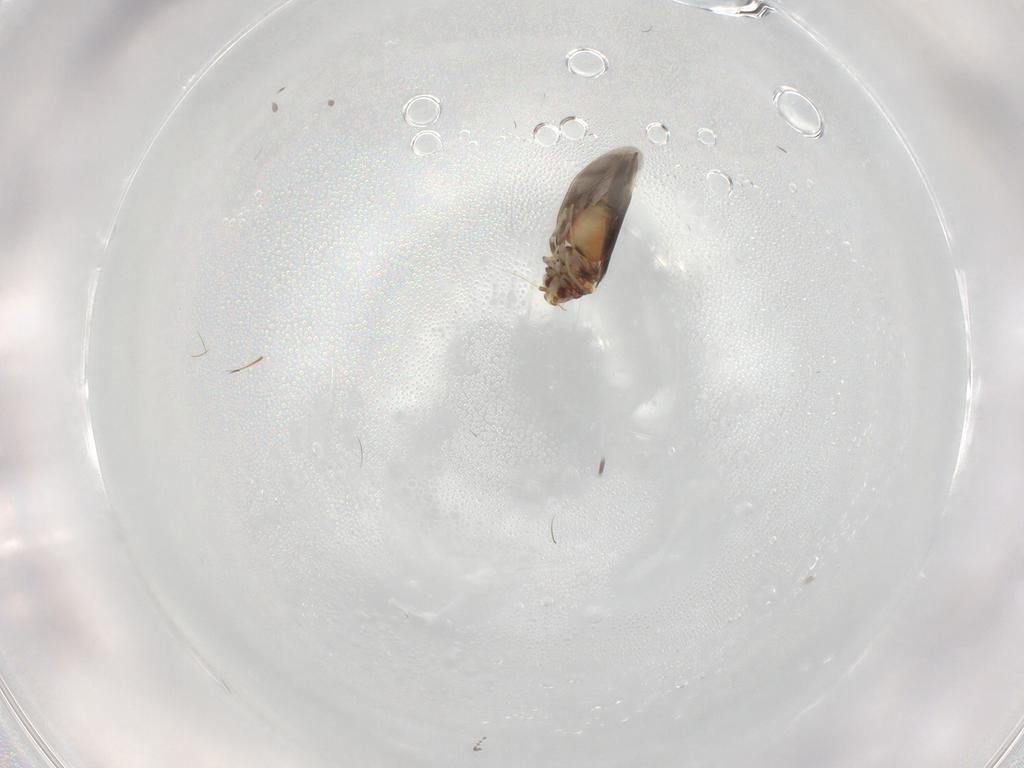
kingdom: Animalia
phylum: Arthropoda
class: Insecta
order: Hemiptera
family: Aleyrodidae
